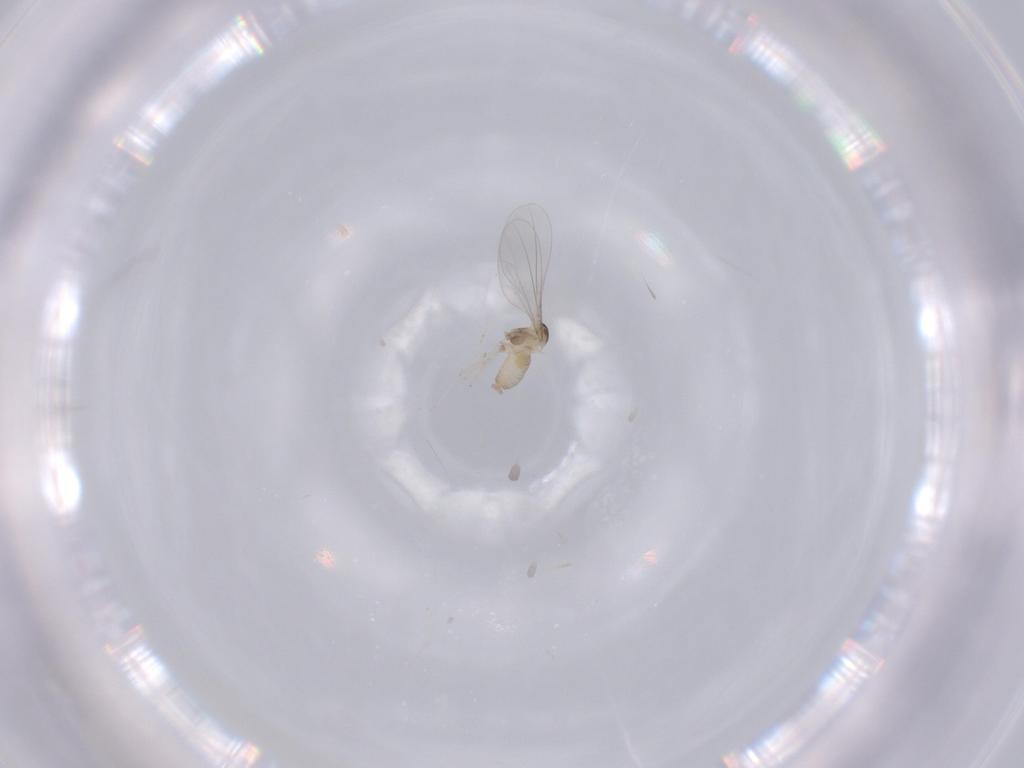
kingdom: Animalia
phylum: Arthropoda
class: Insecta
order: Diptera
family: Cecidomyiidae
